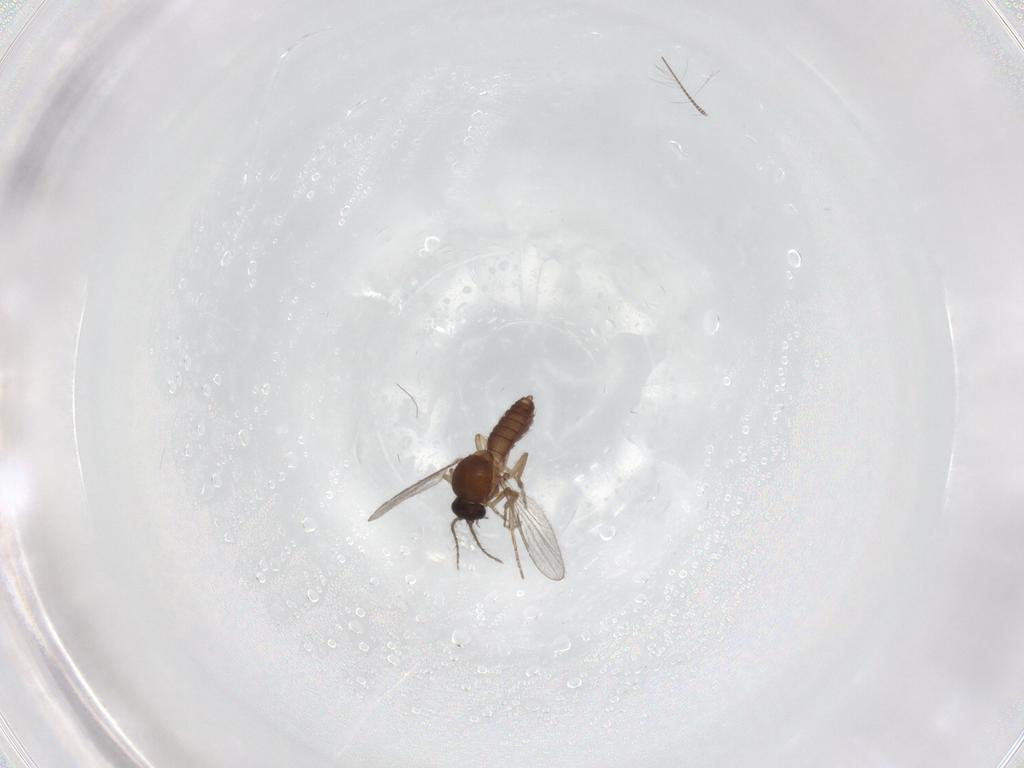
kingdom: Animalia
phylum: Arthropoda
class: Insecta
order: Diptera
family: Chironomidae
